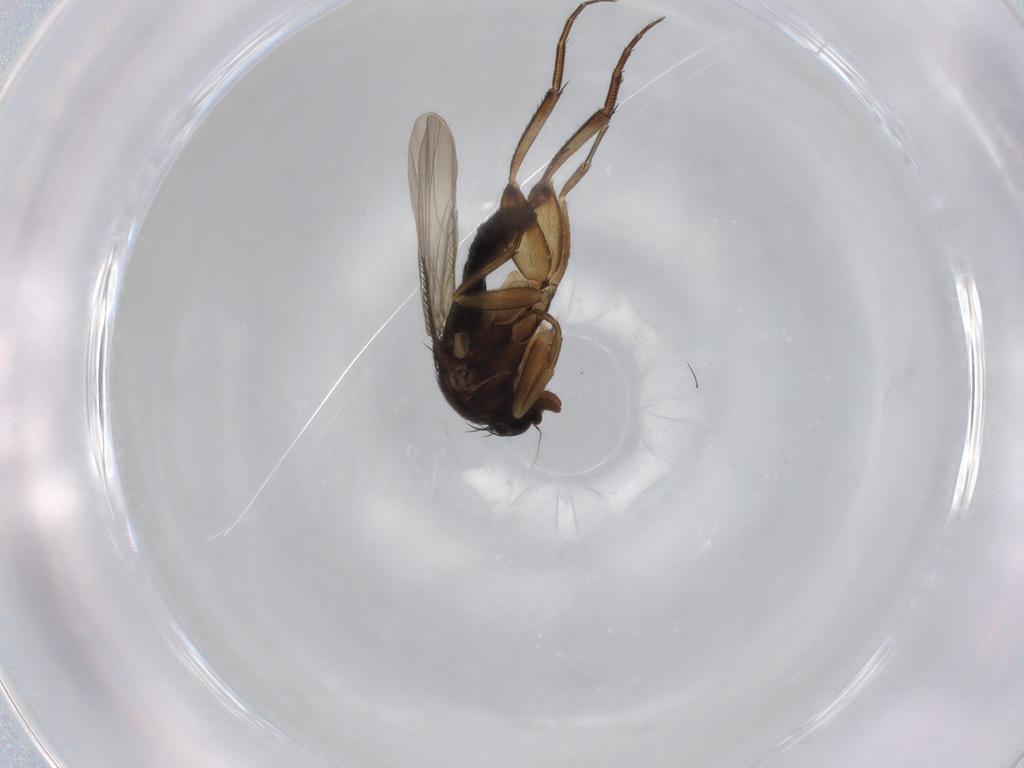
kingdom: Animalia
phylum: Arthropoda
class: Insecta
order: Diptera
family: Phoridae
